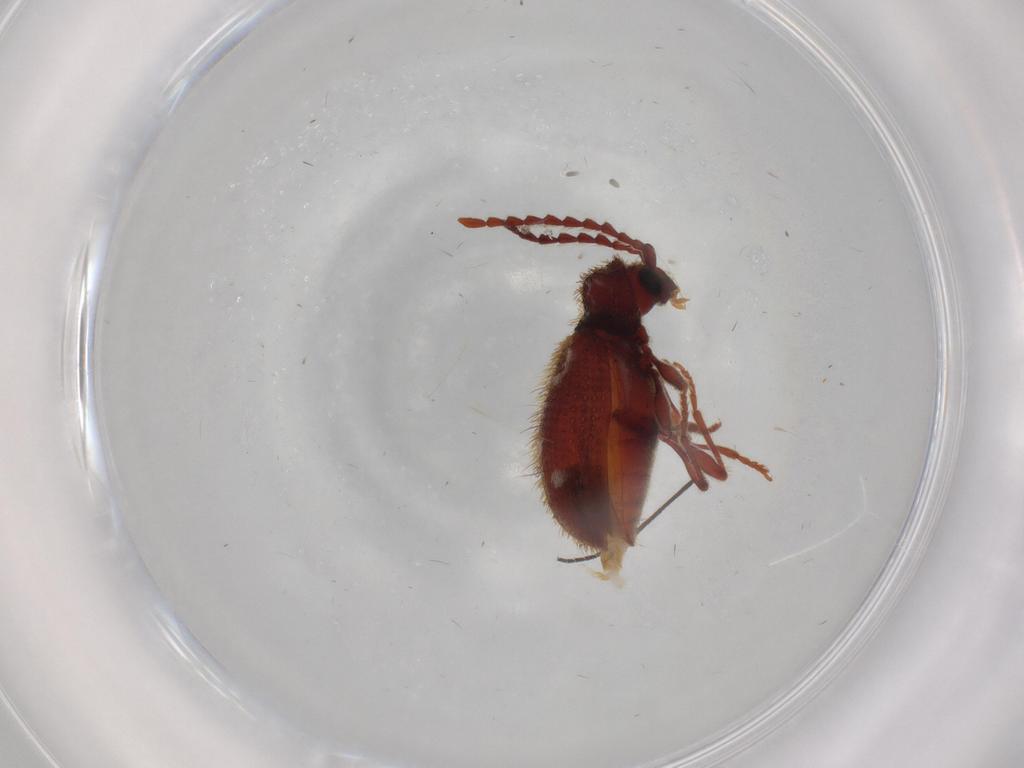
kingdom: Animalia
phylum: Arthropoda
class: Insecta
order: Coleoptera
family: Ptinidae
